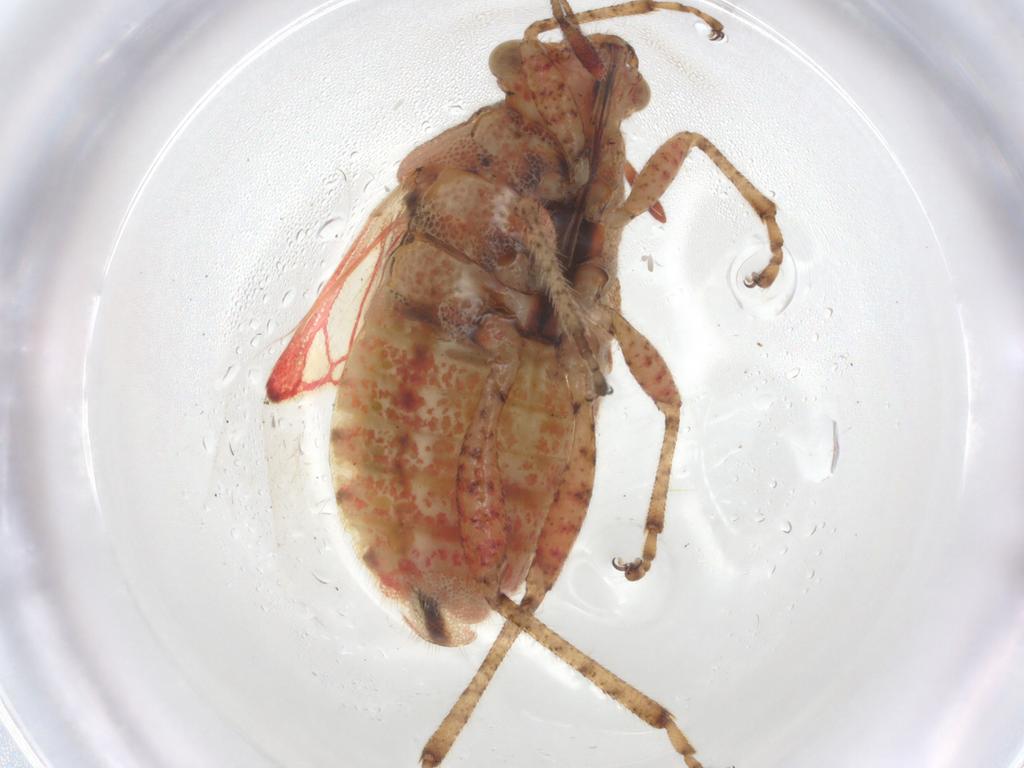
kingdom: Animalia
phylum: Arthropoda
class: Insecta
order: Hemiptera
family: Rhopalidae
